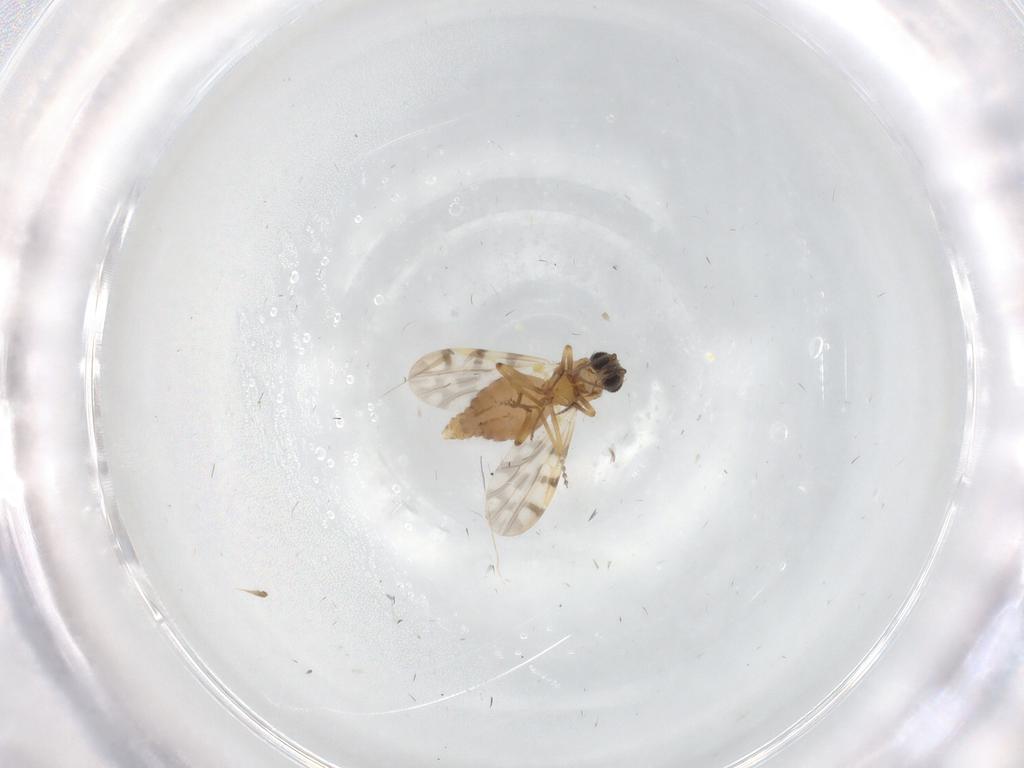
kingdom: Animalia
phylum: Arthropoda
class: Insecta
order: Diptera
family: Ceratopogonidae
